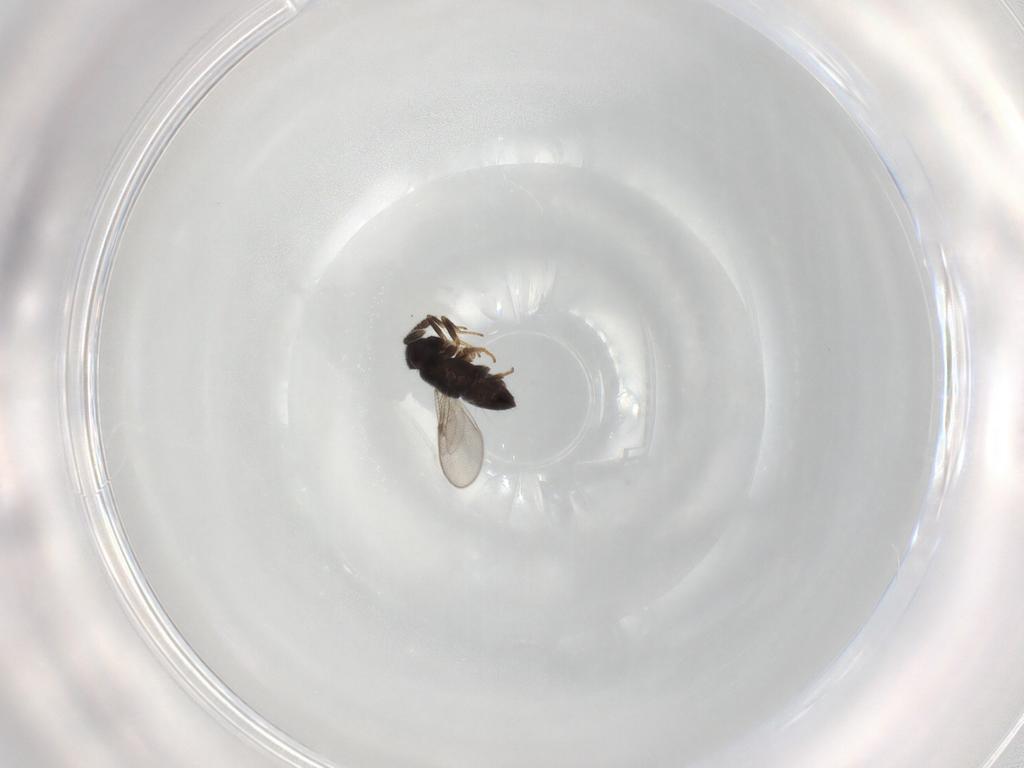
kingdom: Animalia
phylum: Arthropoda
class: Insecta
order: Hymenoptera
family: Encyrtidae
